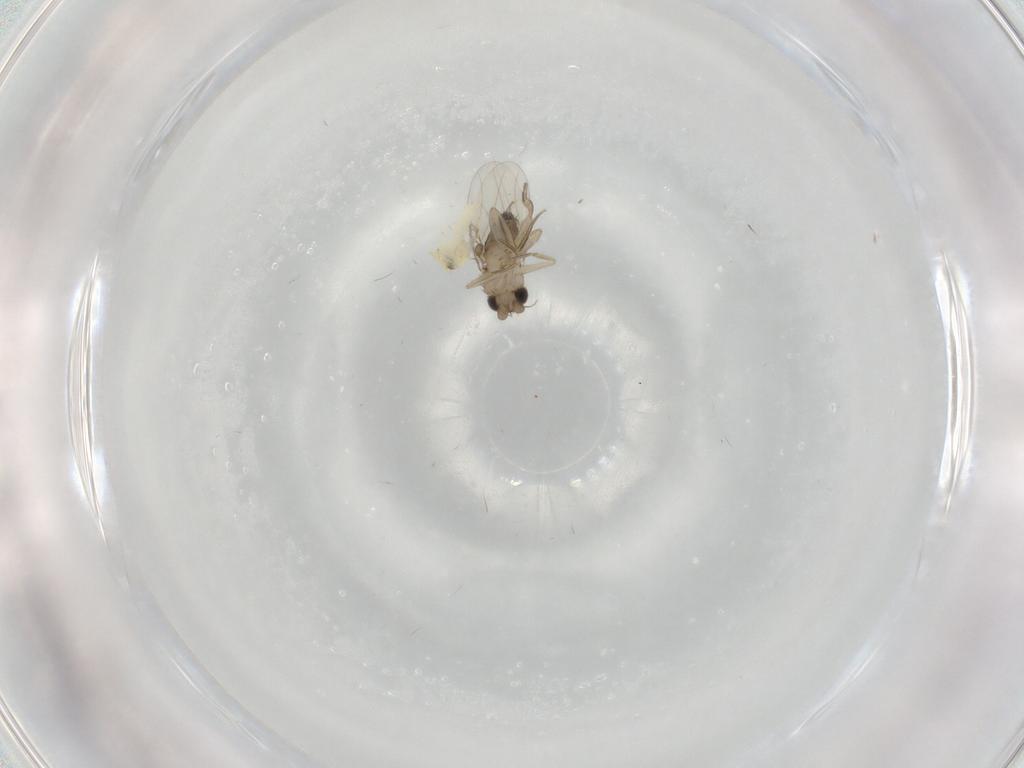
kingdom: Animalia
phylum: Arthropoda
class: Insecta
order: Diptera
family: Phoridae
